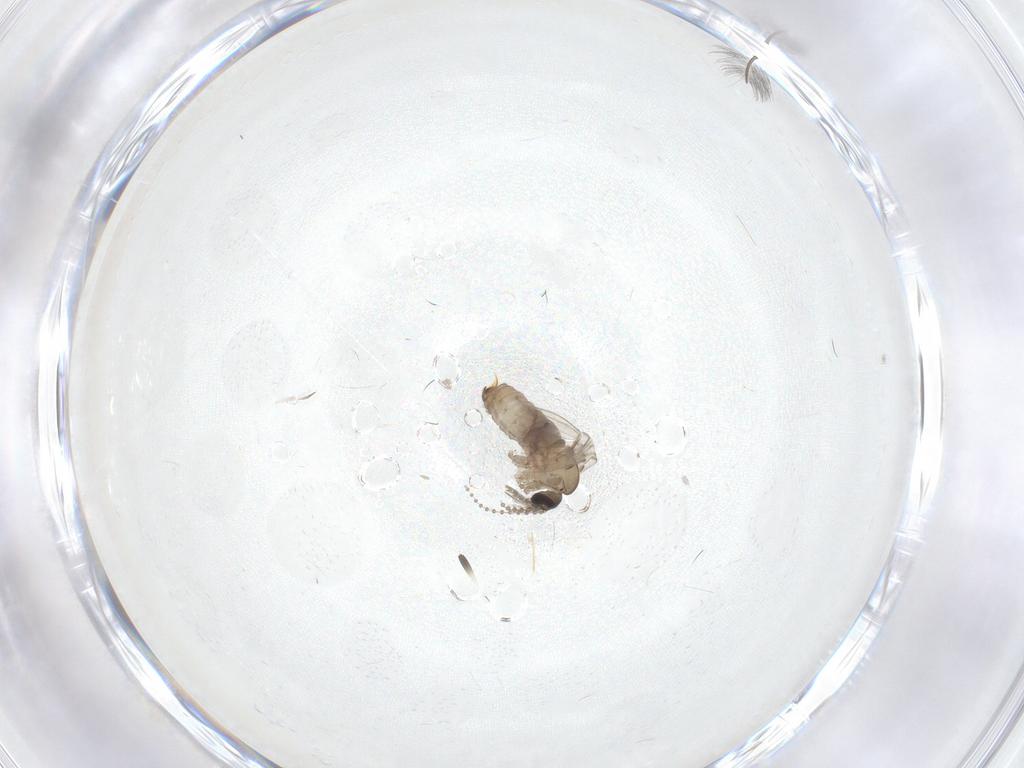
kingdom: Animalia
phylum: Arthropoda
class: Insecta
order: Diptera
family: Psychodidae
